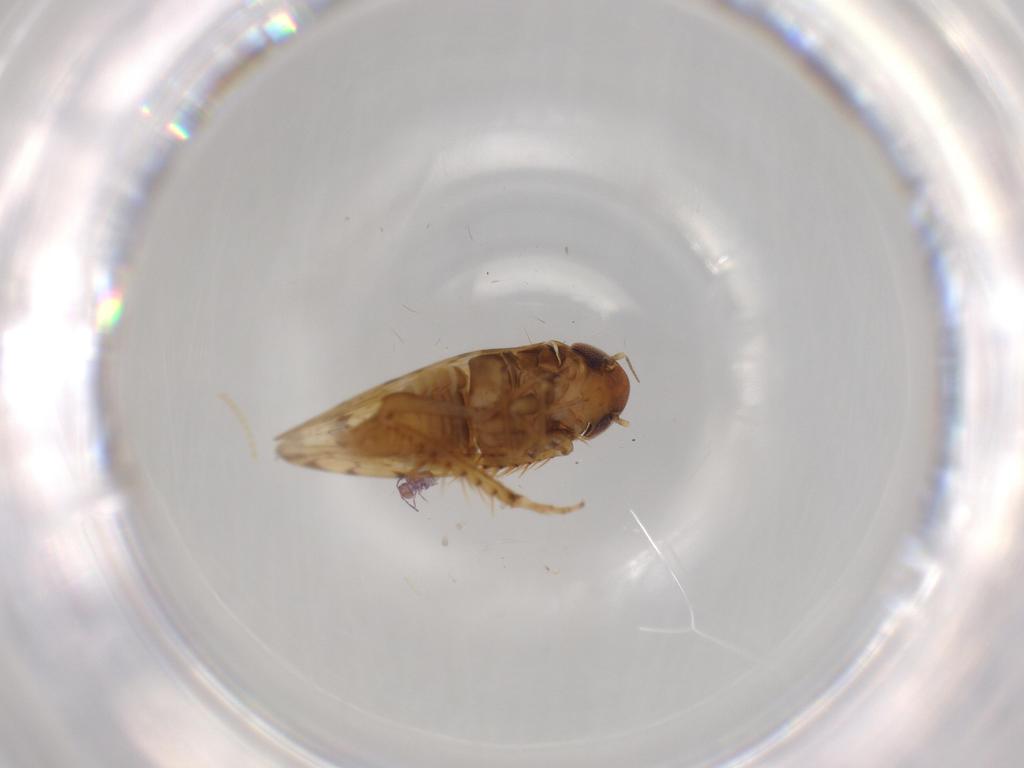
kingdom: Animalia
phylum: Arthropoda
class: Insecta
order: Hemiptera
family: Cicadellidae
